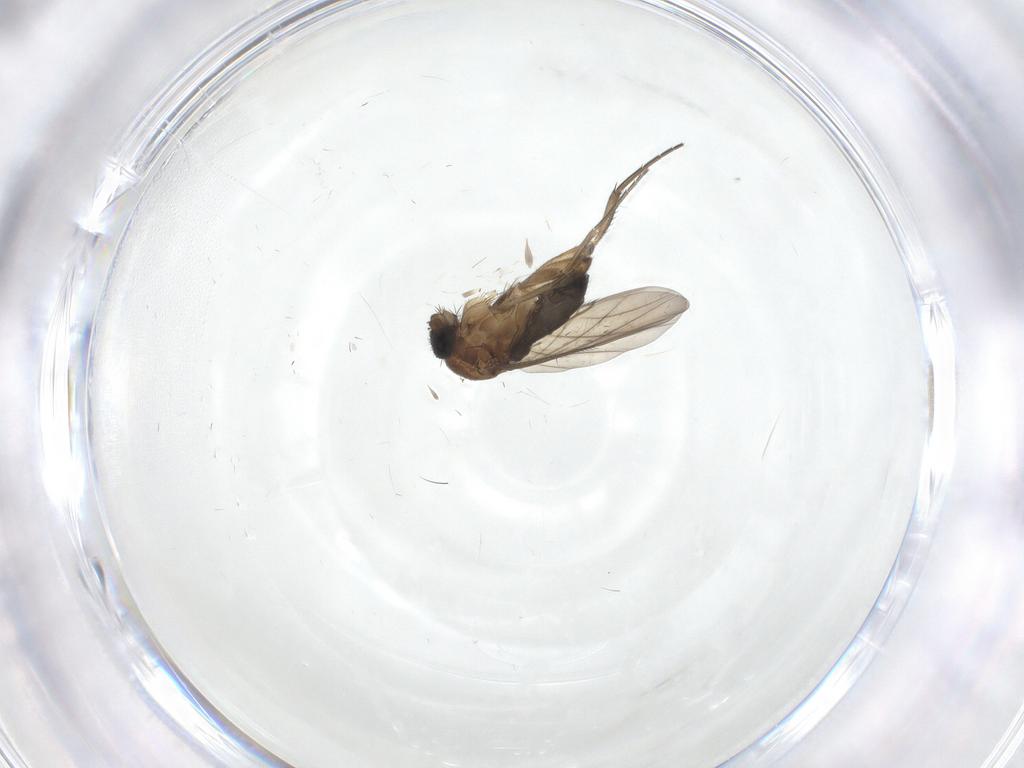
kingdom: Animalia
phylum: Arthropoda
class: Insecta
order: Diptera
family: Phoridae
